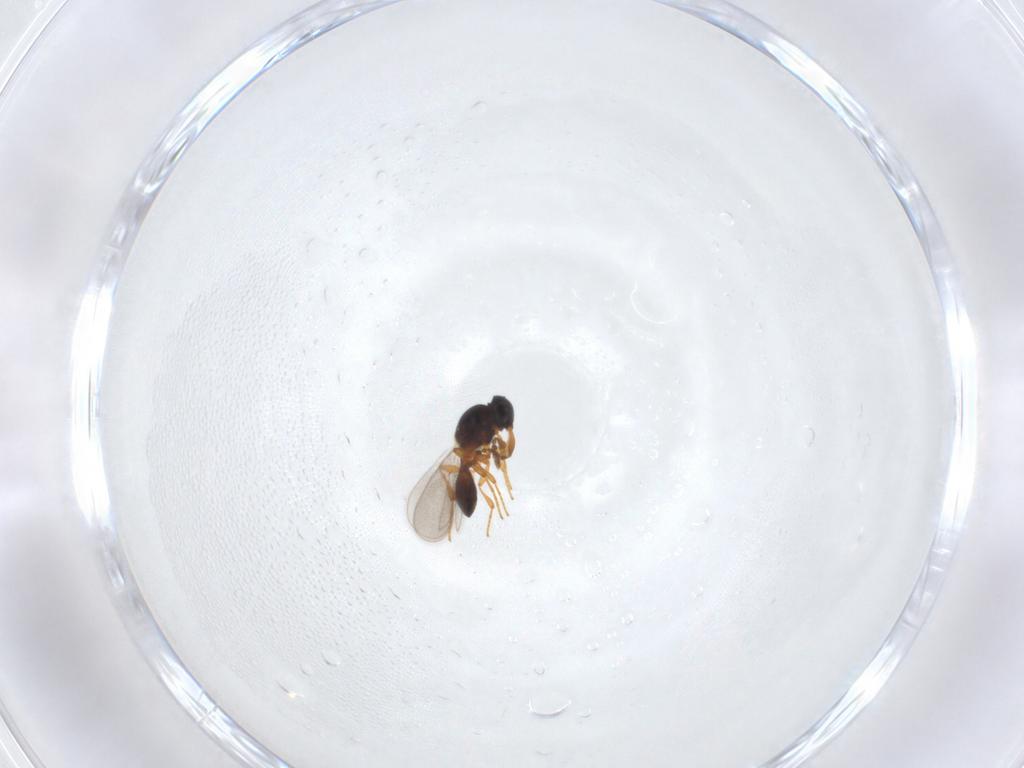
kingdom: Animalia
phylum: Arthropoda
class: Insecta
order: Hymenoptera
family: Platygastridae
